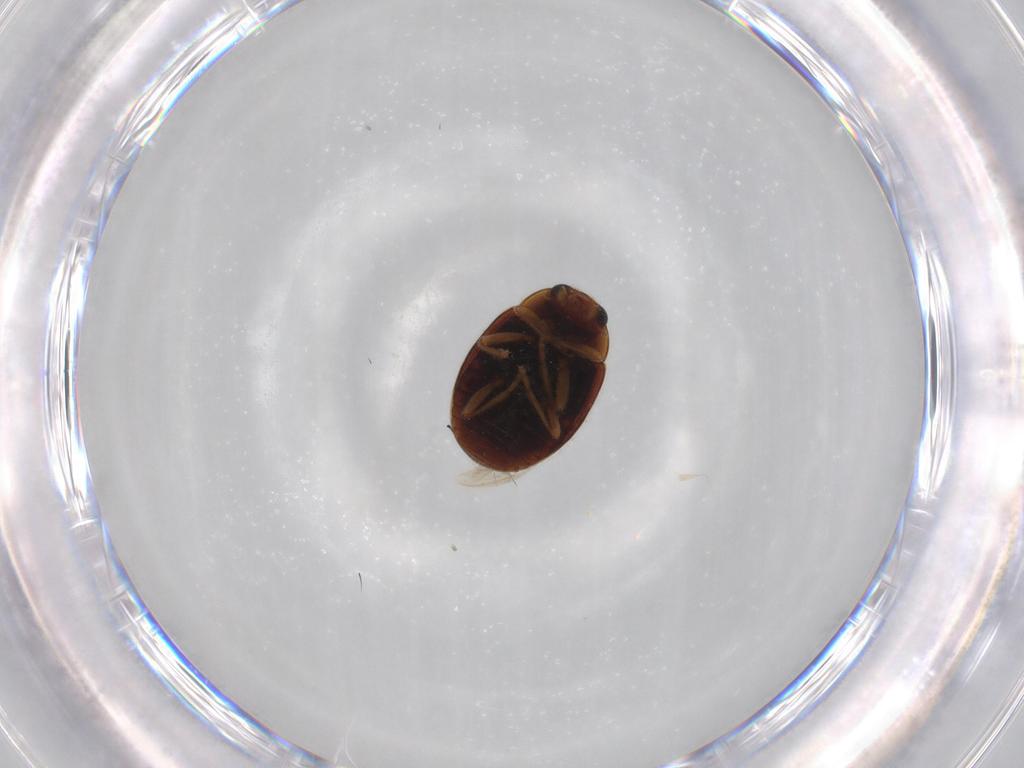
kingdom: Animalia
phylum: Arthropoda
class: Insecta
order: Coleoptera
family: Coccinellidae
